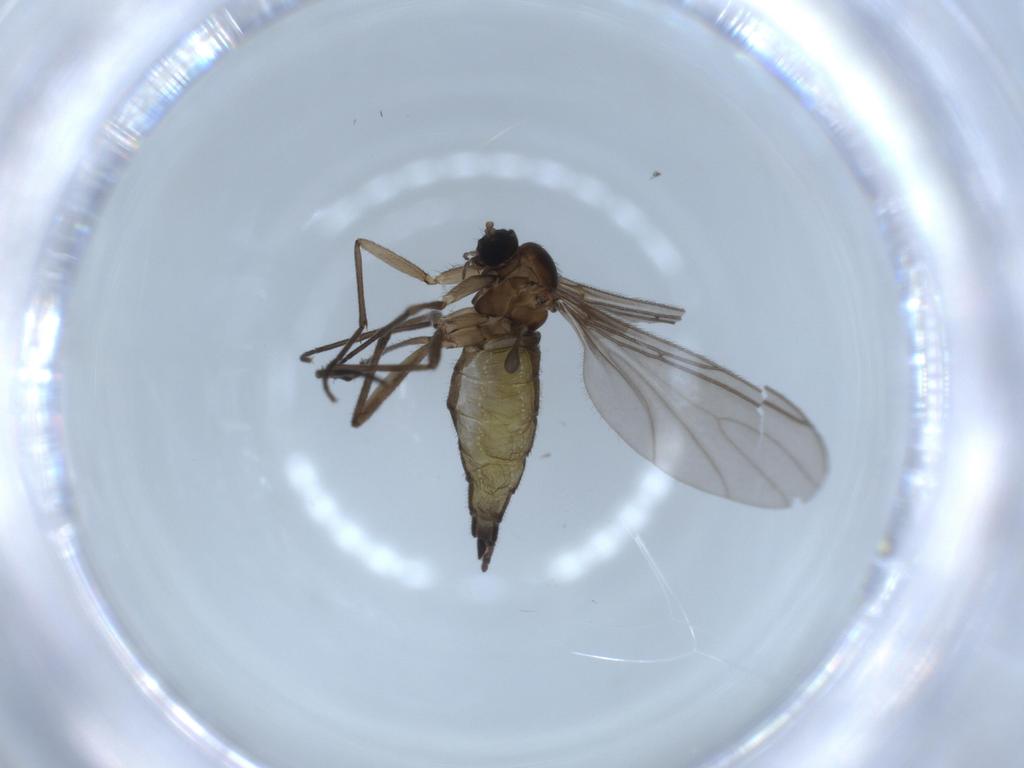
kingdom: Animalia
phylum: Arthropoda
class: Insecta
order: Diptera
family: Sciaridae
